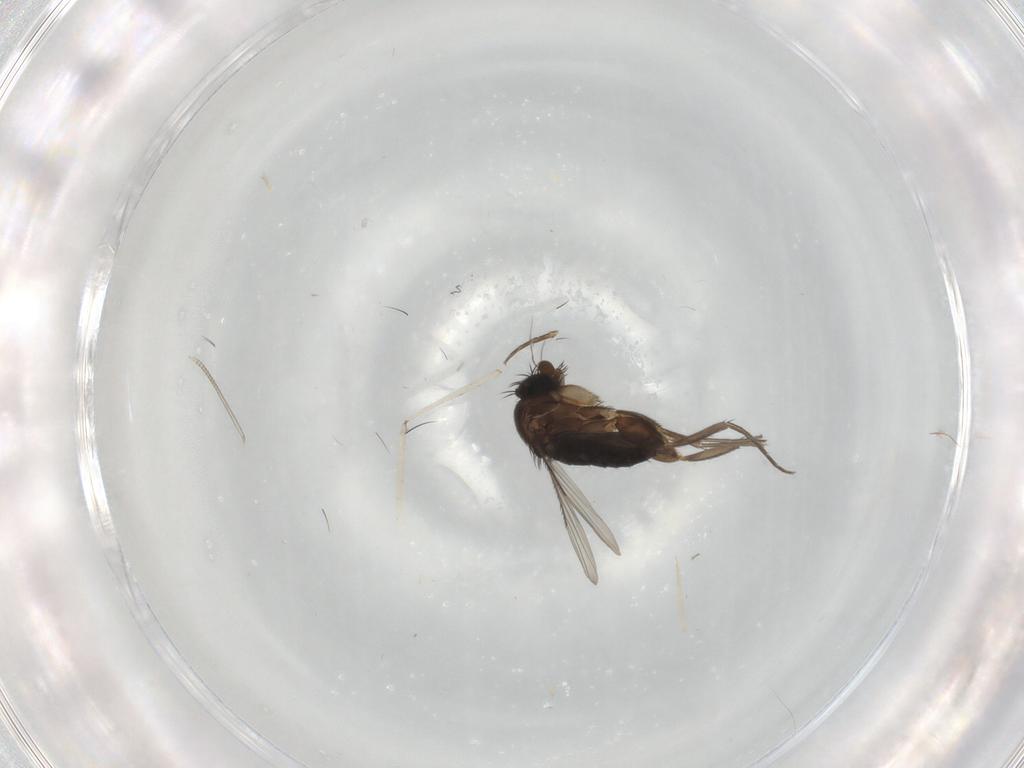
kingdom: Animalia
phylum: Arthropoda
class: Insecta
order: Diptera
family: Phoridae
